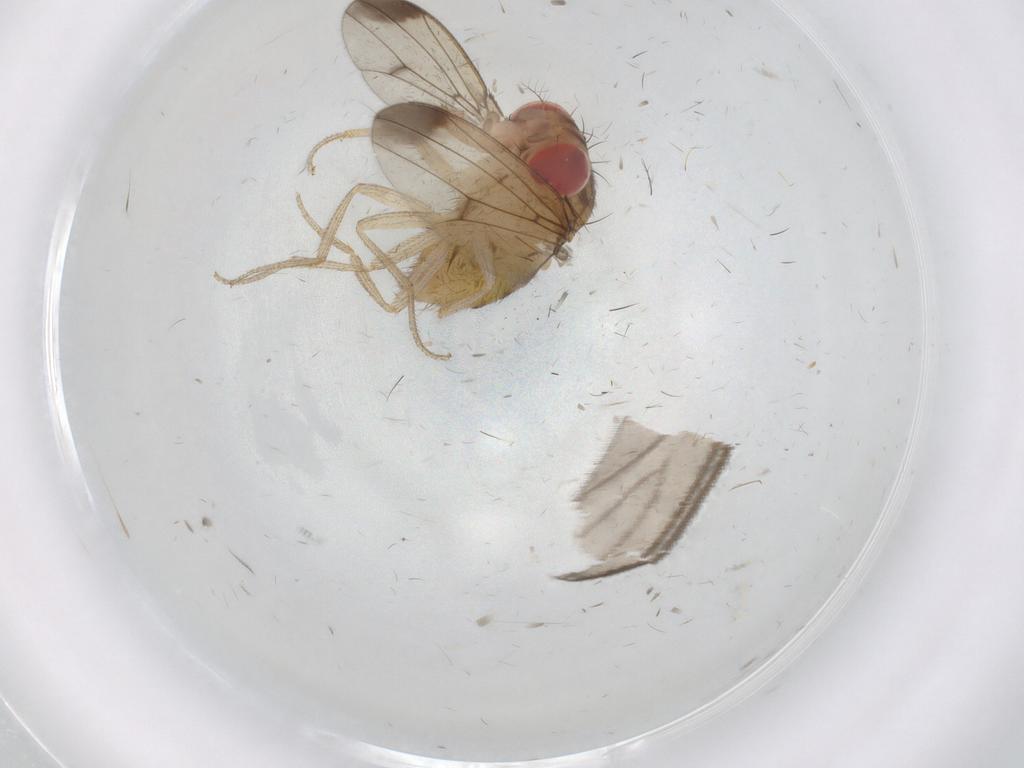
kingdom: Animalia
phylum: Arthropoda
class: Insecta
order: Diptera
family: Drosophilidae
